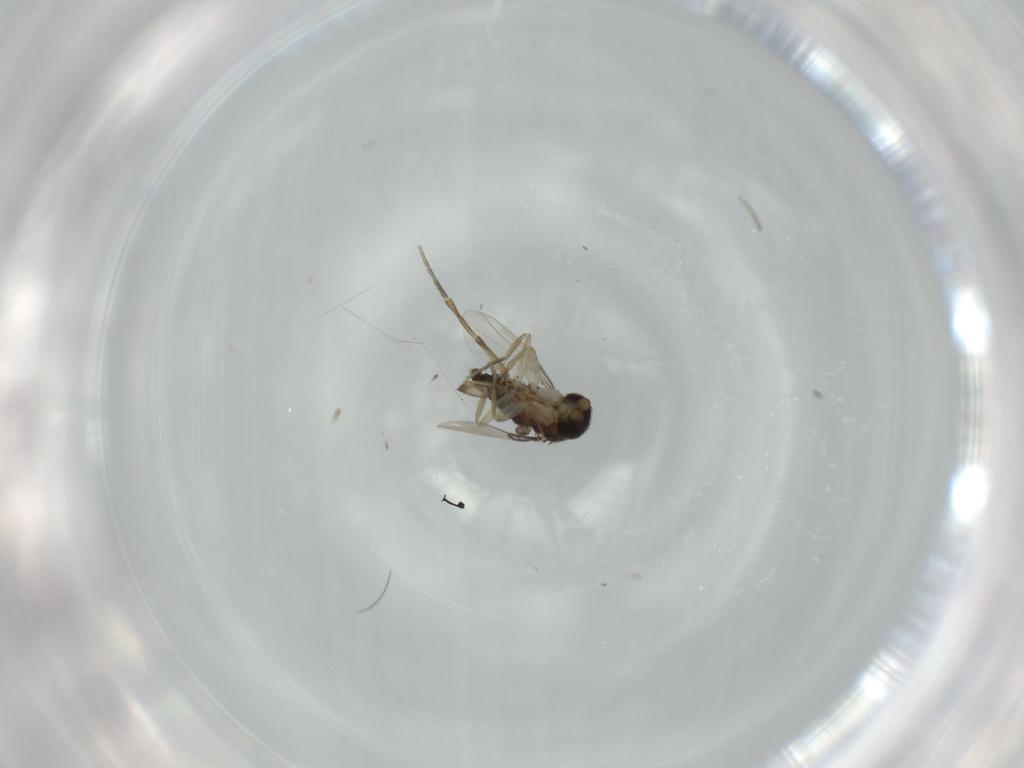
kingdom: Animalia
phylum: Arthropoda
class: Insecta
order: Diptera
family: Phoridae
